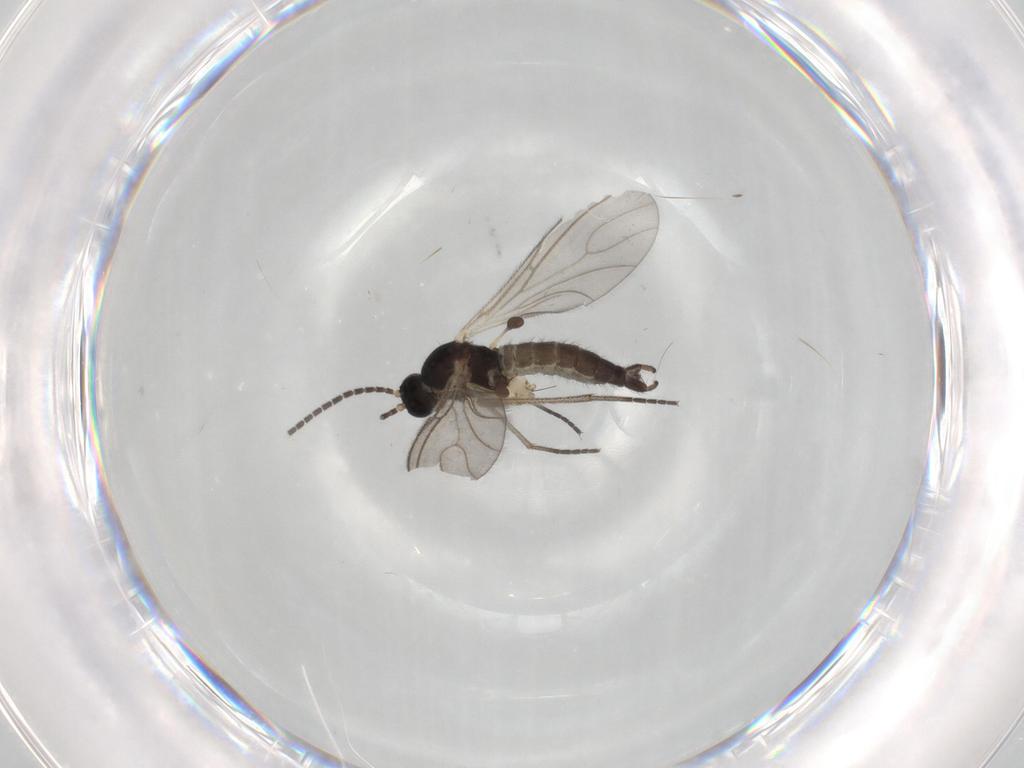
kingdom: Animalia
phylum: Arthropoda
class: Insecta
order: Diptera
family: Sciaridae
